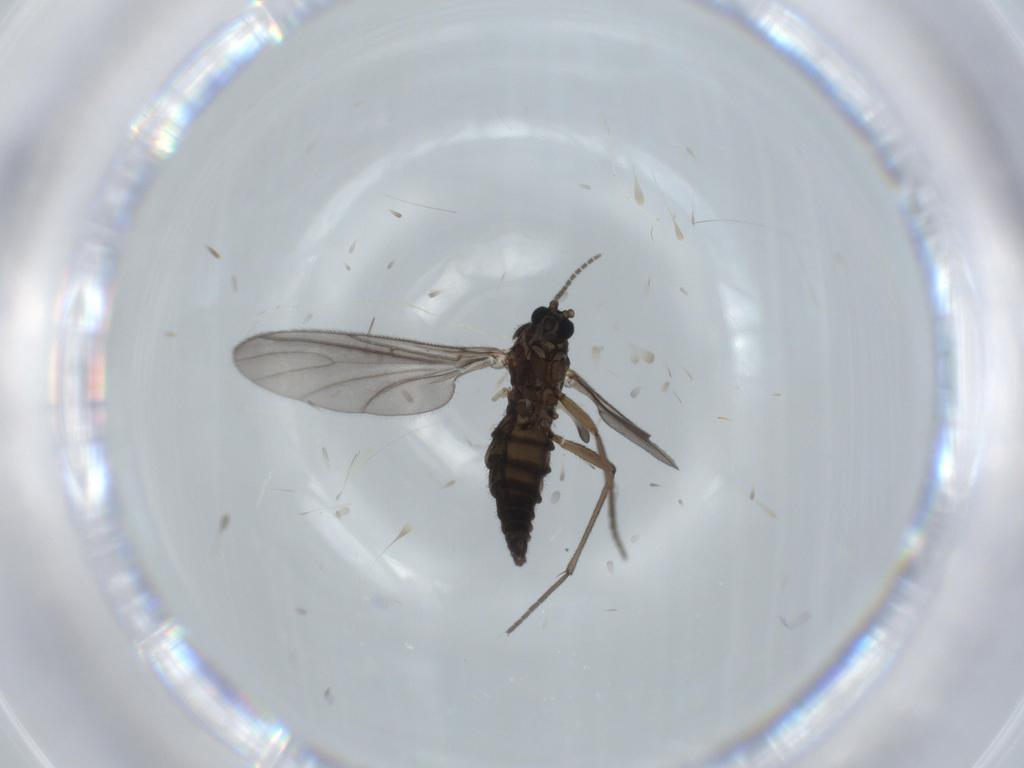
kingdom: Animalia
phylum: Arthropoda
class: Insecta
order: Diptera
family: Sciaridae
